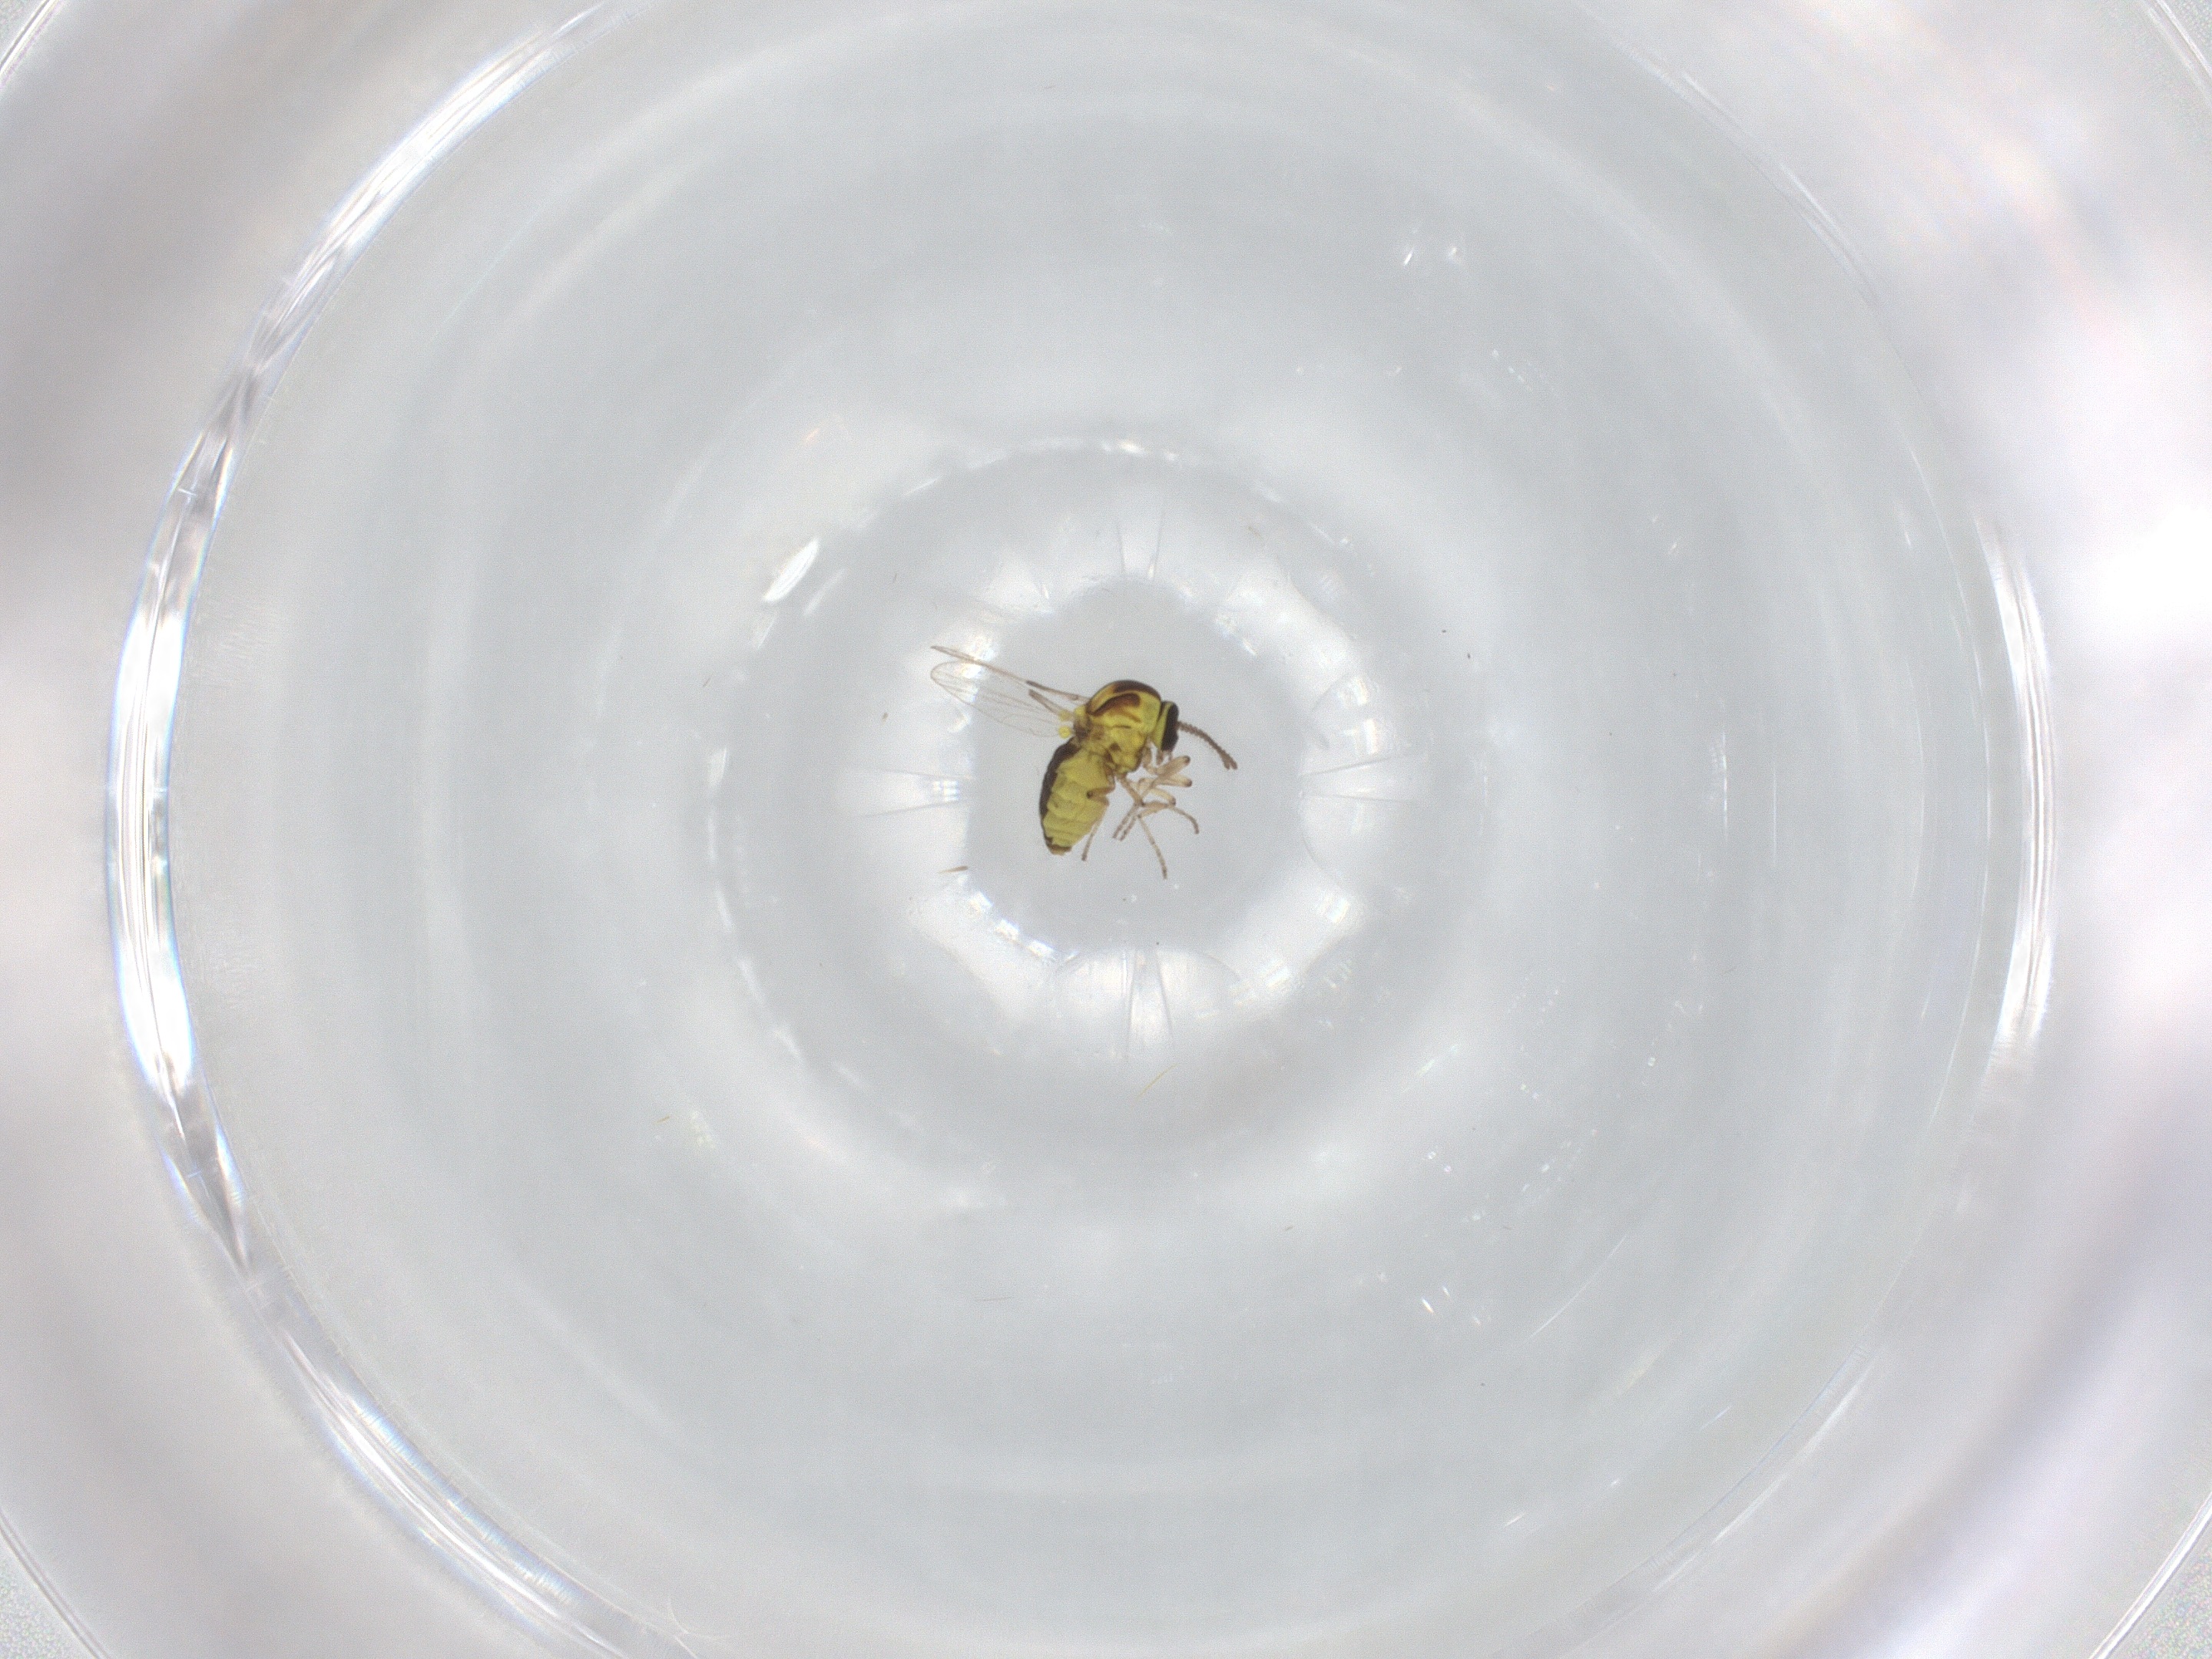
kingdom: Animalia
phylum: Arthropoda
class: Insecta
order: Diptera
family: Ceratopogonidae
